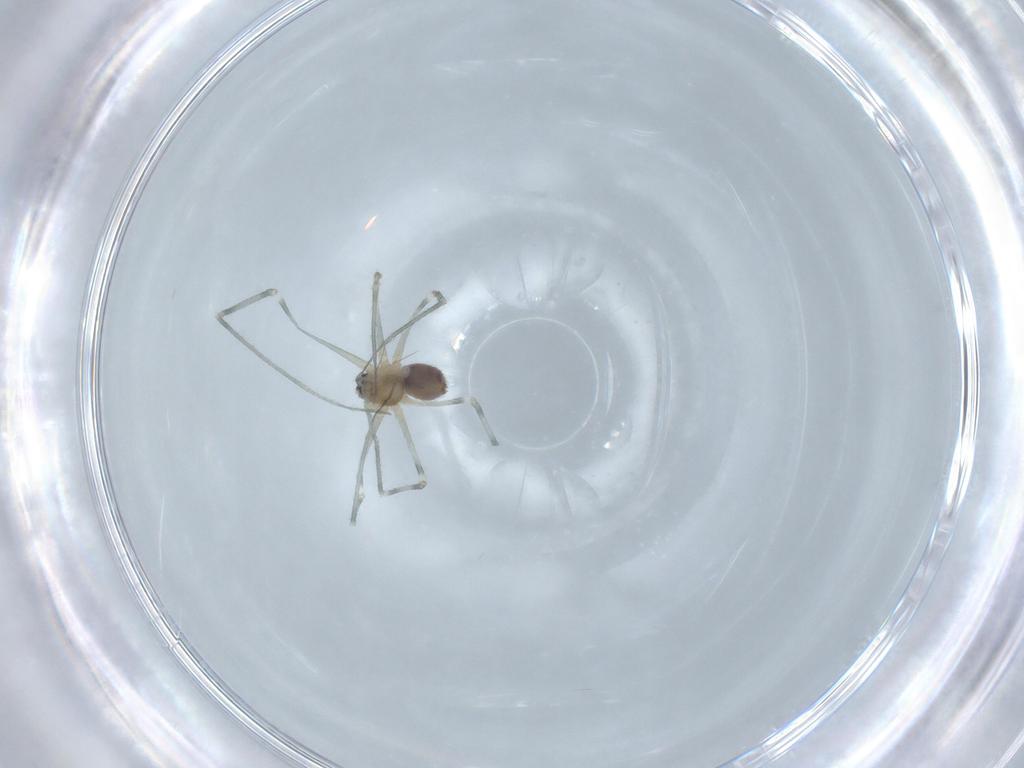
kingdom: Animalia
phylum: Arthropoda
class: Arachnida
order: Araneae
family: Pholcidae
